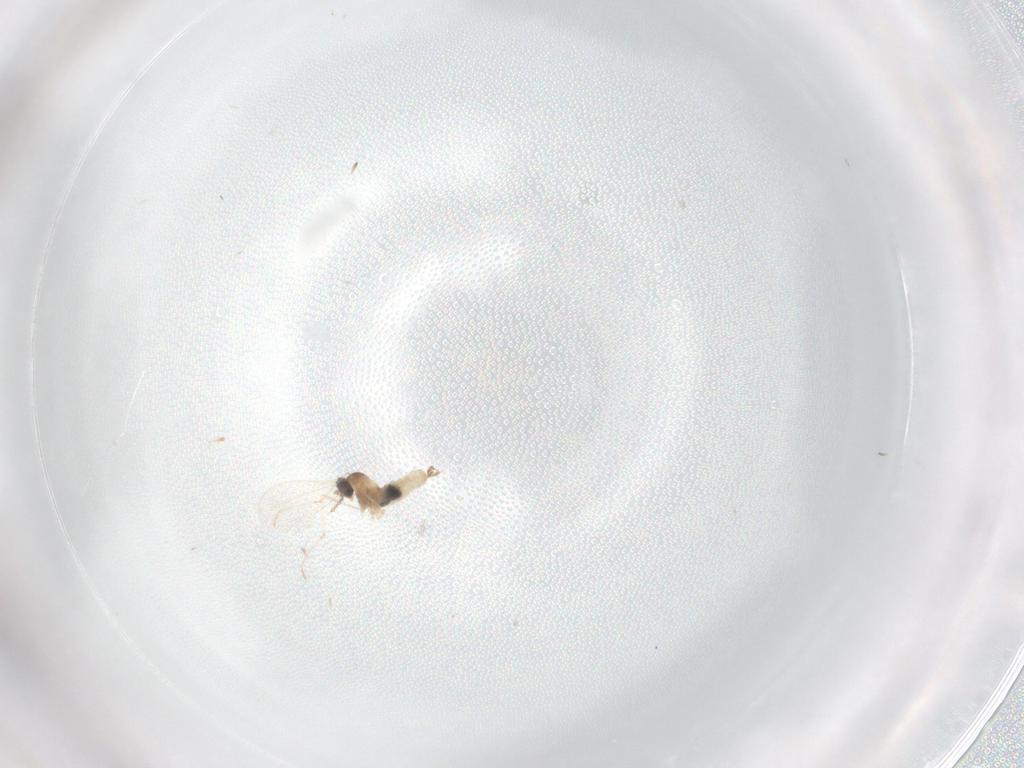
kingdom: Animalia
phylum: Arthropoda
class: Insecta
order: Diptera
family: Cecidomyiidae
